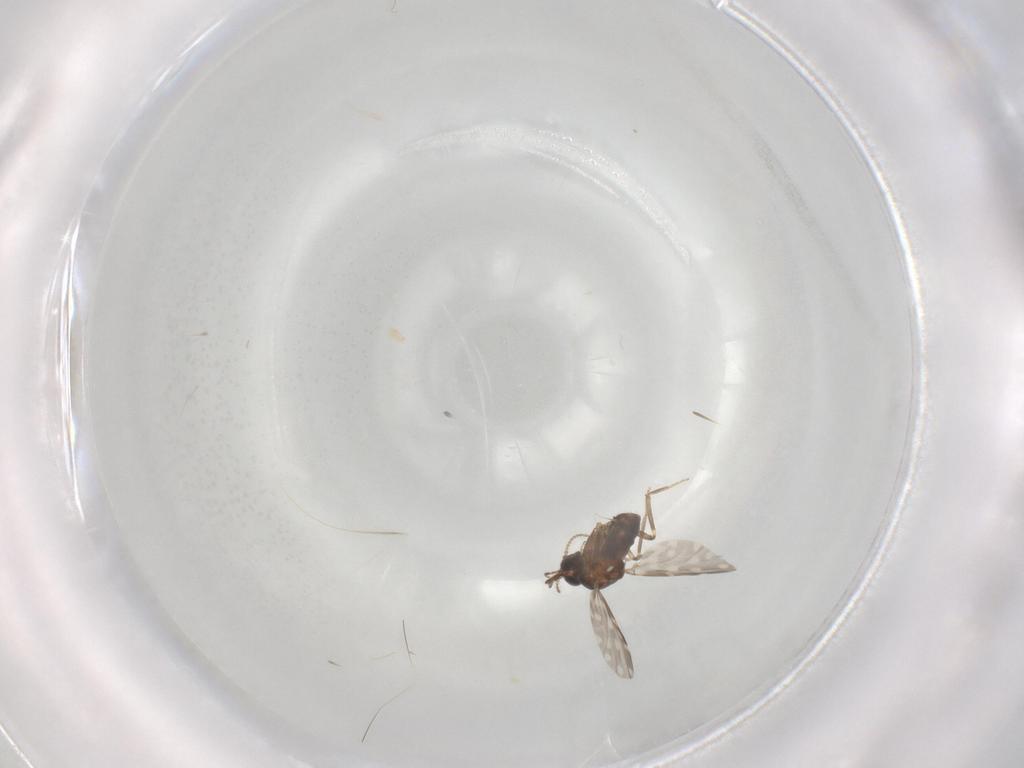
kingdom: Animalia
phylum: Arthropoda
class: Insecta
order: Diptera
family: Ceratopogonidae
